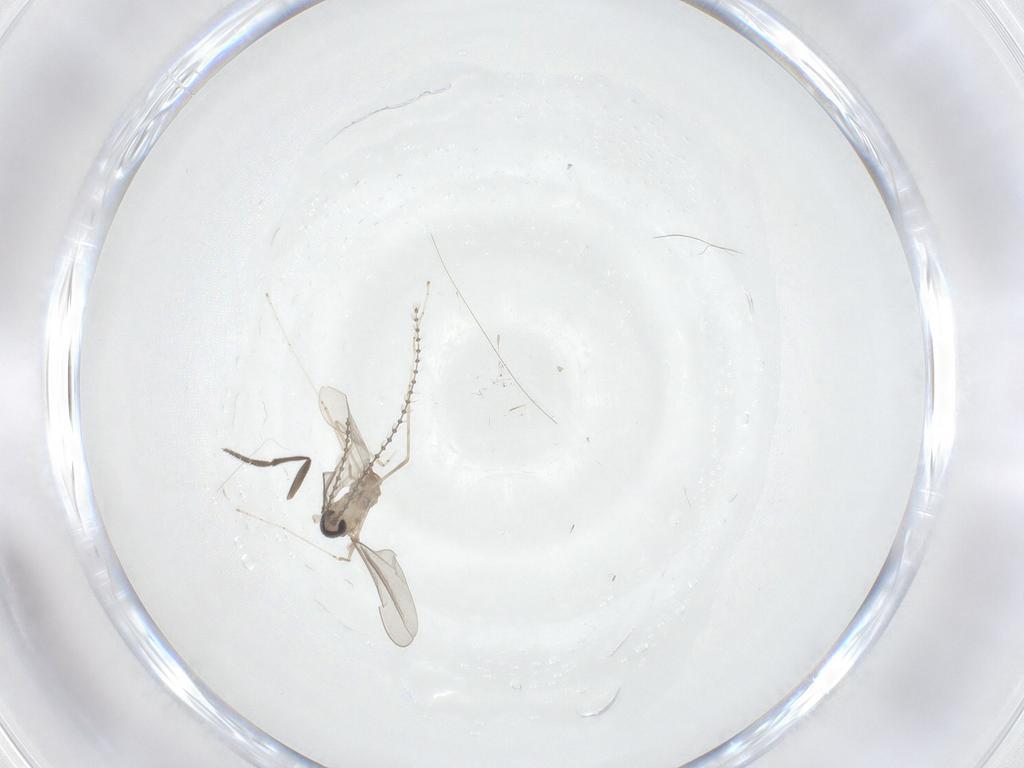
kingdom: Animalia
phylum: Arthropoda
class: Insecta
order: Diptera
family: Cecidomyiidae
